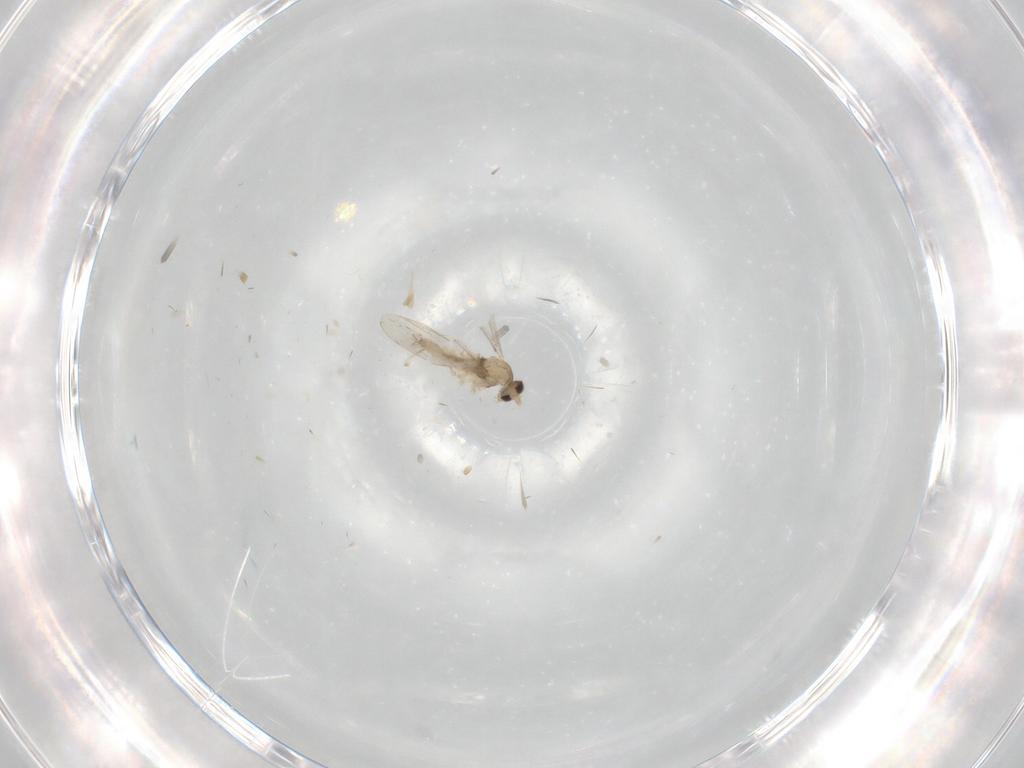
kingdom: Animalia
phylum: Arthropoda
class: Insecta
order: Diptera
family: Cecidomyiidae
